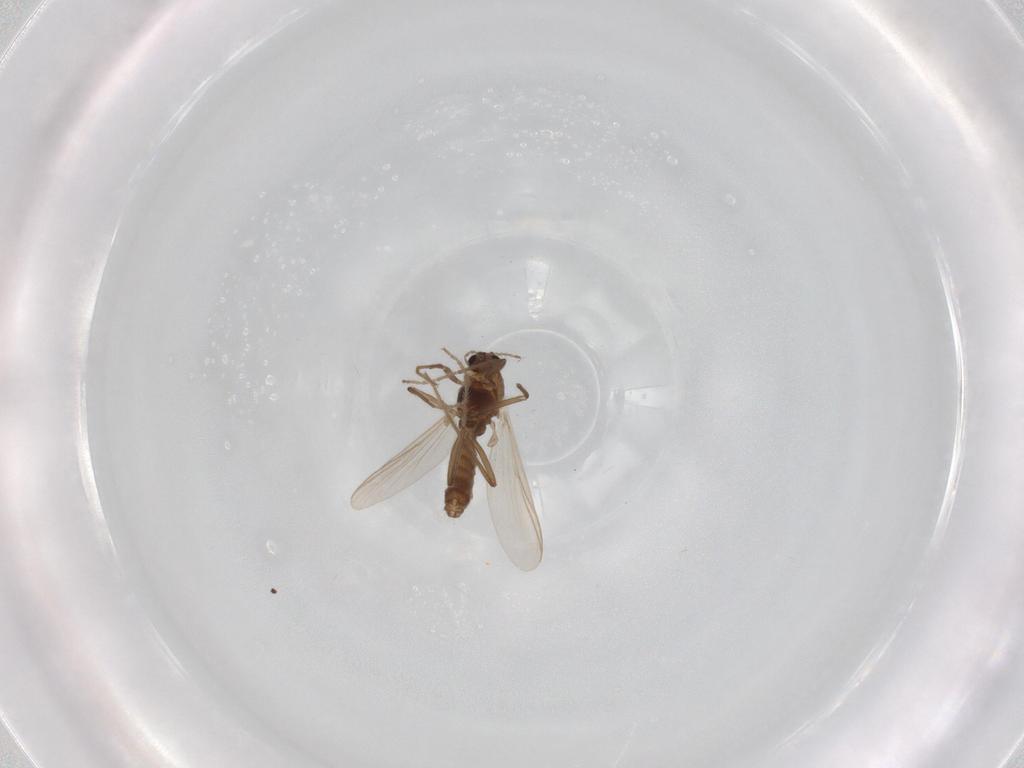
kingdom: Animalia
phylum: Arthropoda
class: Insecta
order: Diptera
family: Chironomidae
